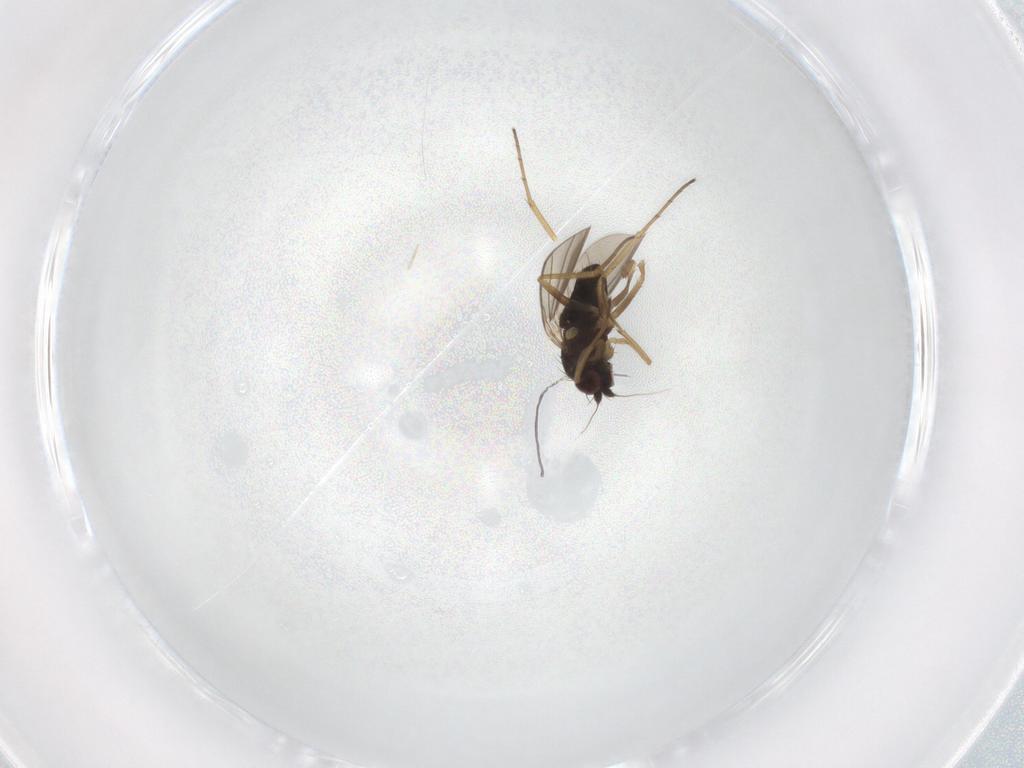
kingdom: Animalia
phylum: Arthropoda
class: Insecta
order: Diptera
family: Dolichopodidae
